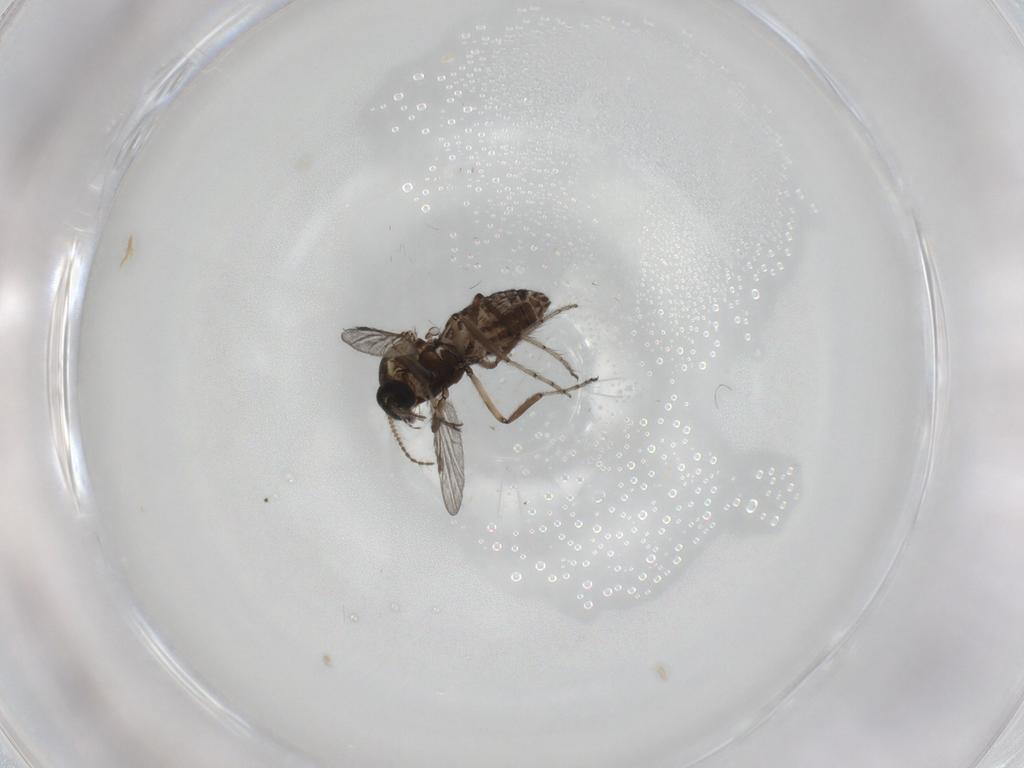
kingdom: Animalia
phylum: Arthropoda
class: Insecta
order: Diptera
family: Ceratopogonidae
